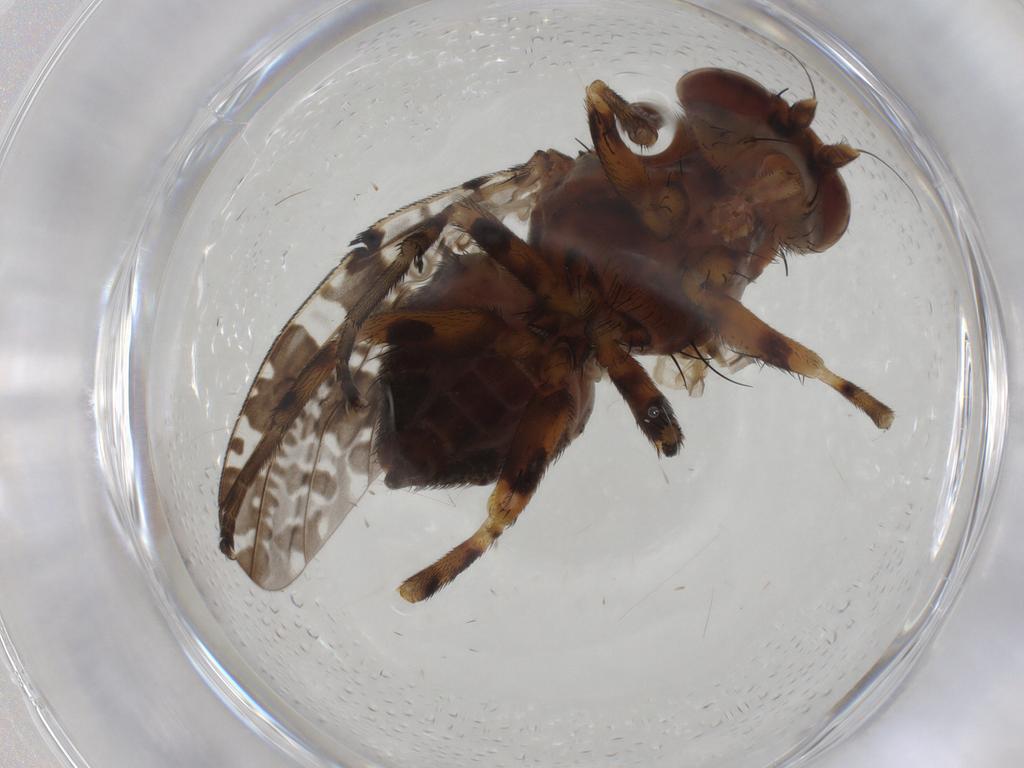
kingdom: Animalia
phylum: Arthropoda
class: Insecta
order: Diptera
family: Odiniidae
